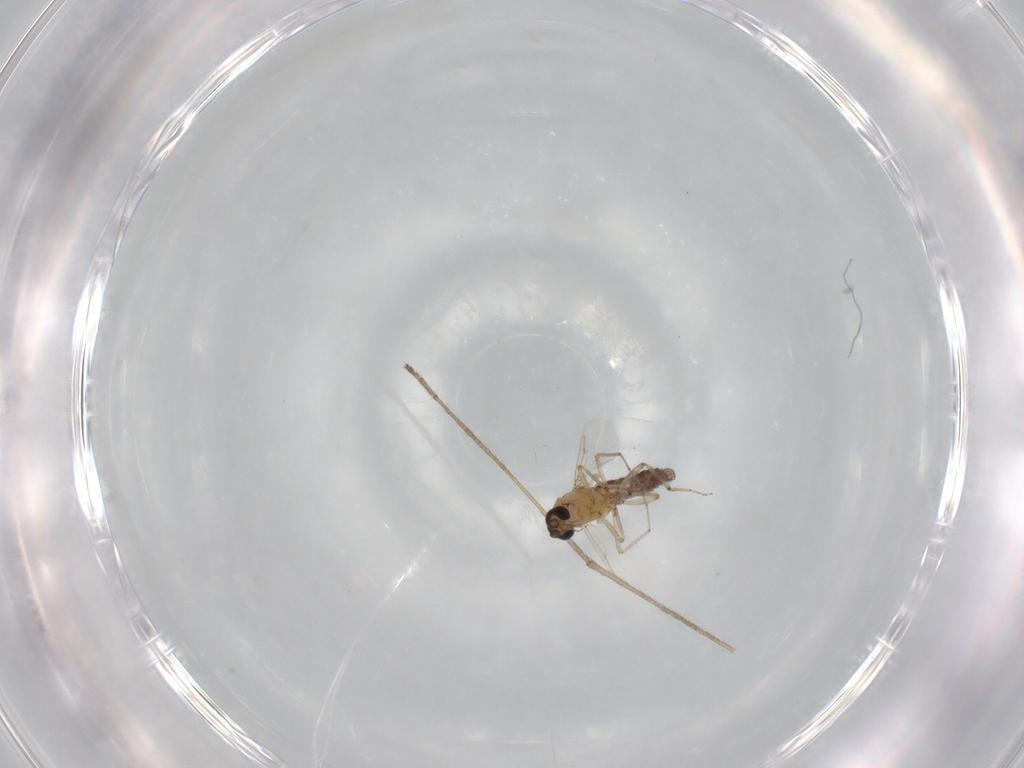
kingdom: Animalia
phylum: Arthropoda
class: Insecta
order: Diptera
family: Ceratopogonidae
